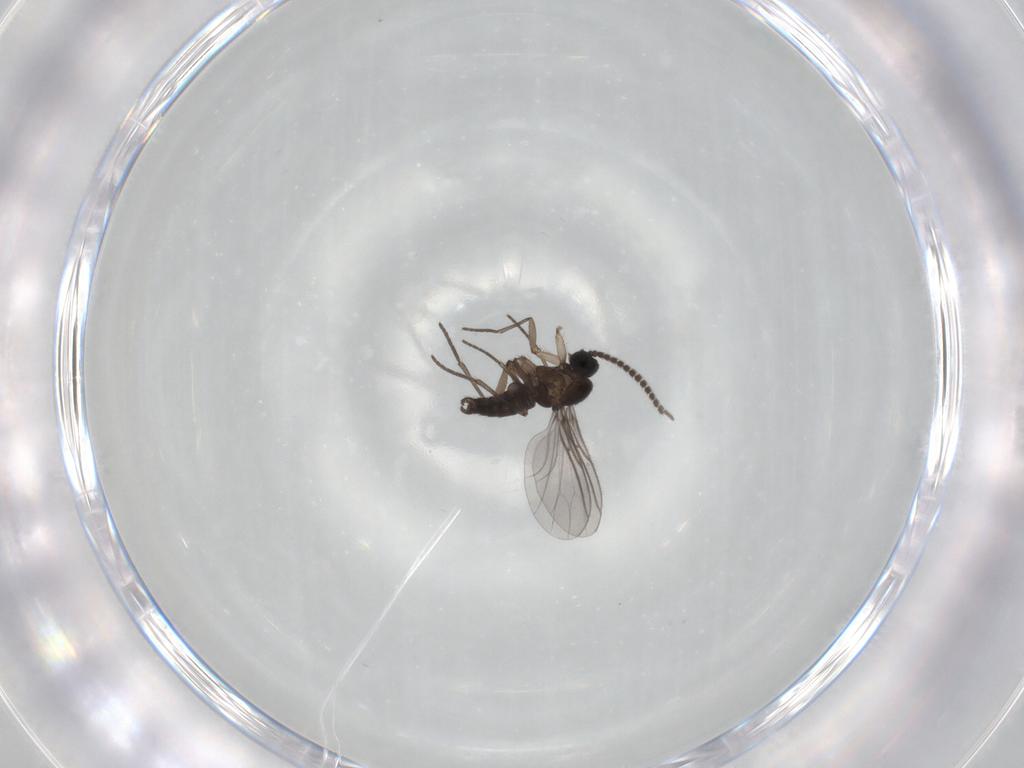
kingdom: Animalia
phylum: Arthropoda
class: Insecta
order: Diptera
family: Cecidomyiidae
